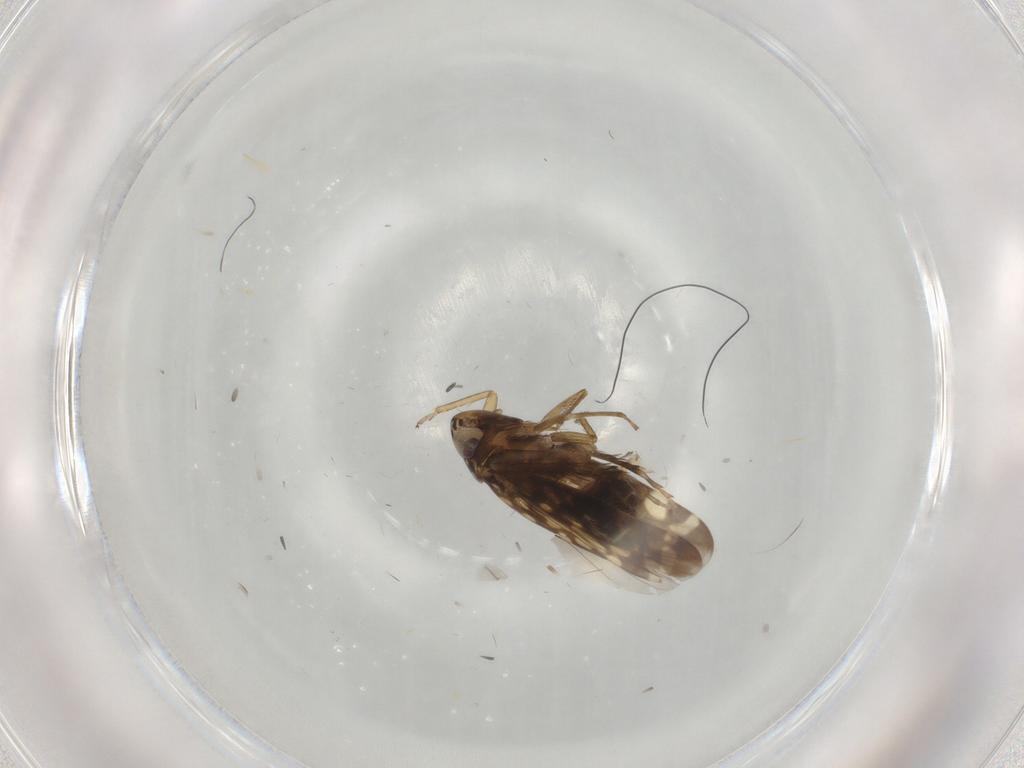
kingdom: Animalia
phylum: Arthropoda
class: Insecta
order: Hemiptera
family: Cicadellidae
